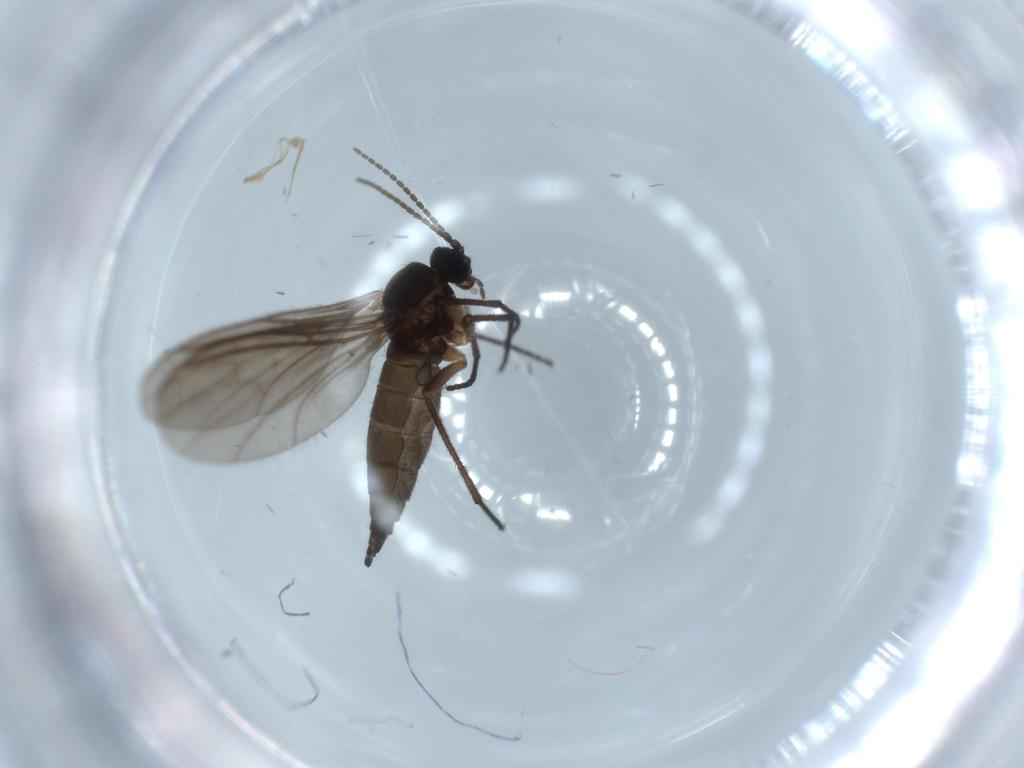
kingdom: Animalia
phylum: Arthropoda
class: Insecta
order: Diptera
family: Sciaridae
